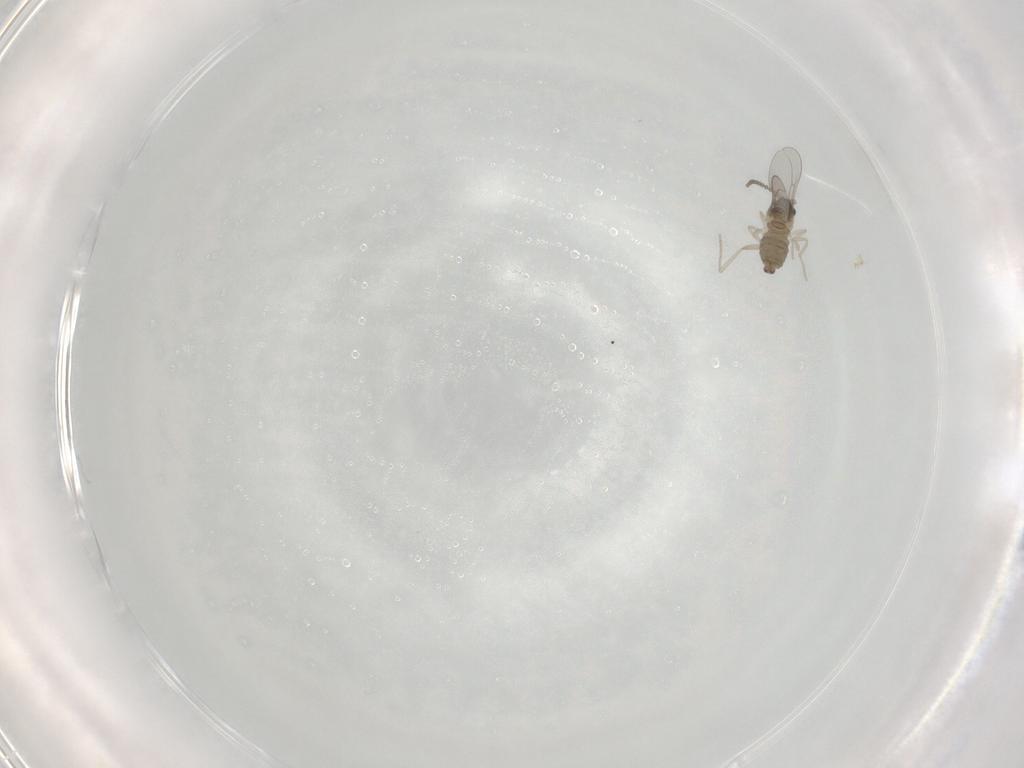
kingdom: Animalia
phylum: Arthropoda
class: Insecta
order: Diptera
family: Cecidomyiidae
